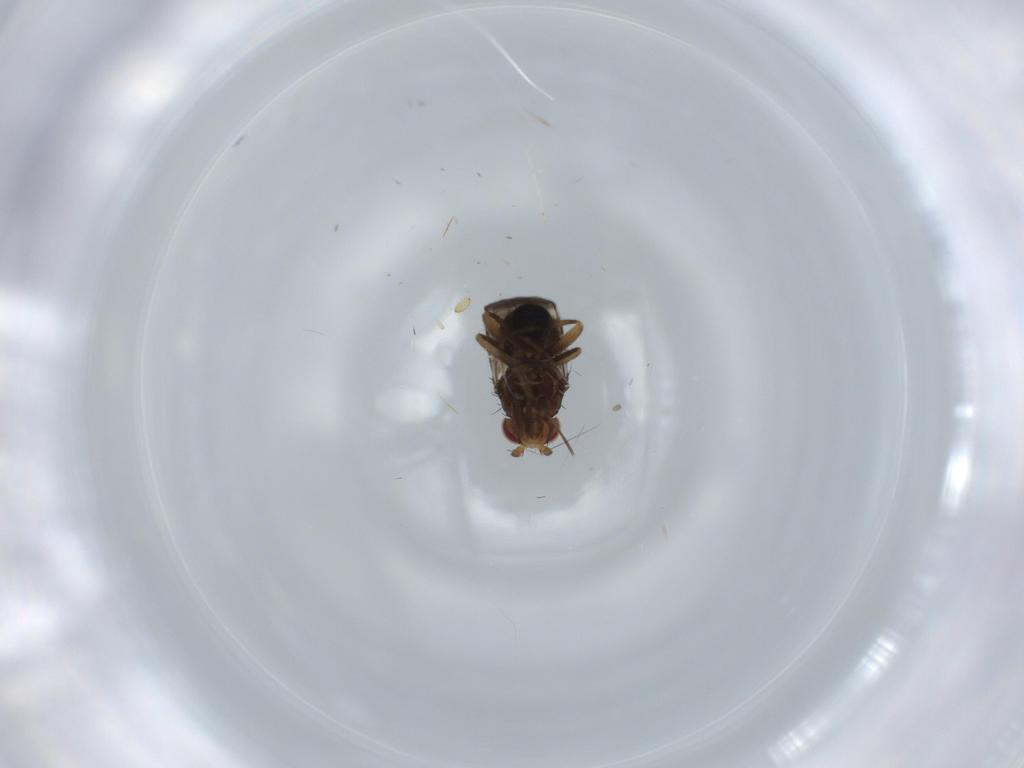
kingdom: Animalia
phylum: Arthropoda
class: Insecta
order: Diptera
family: Cecidomyiidae
